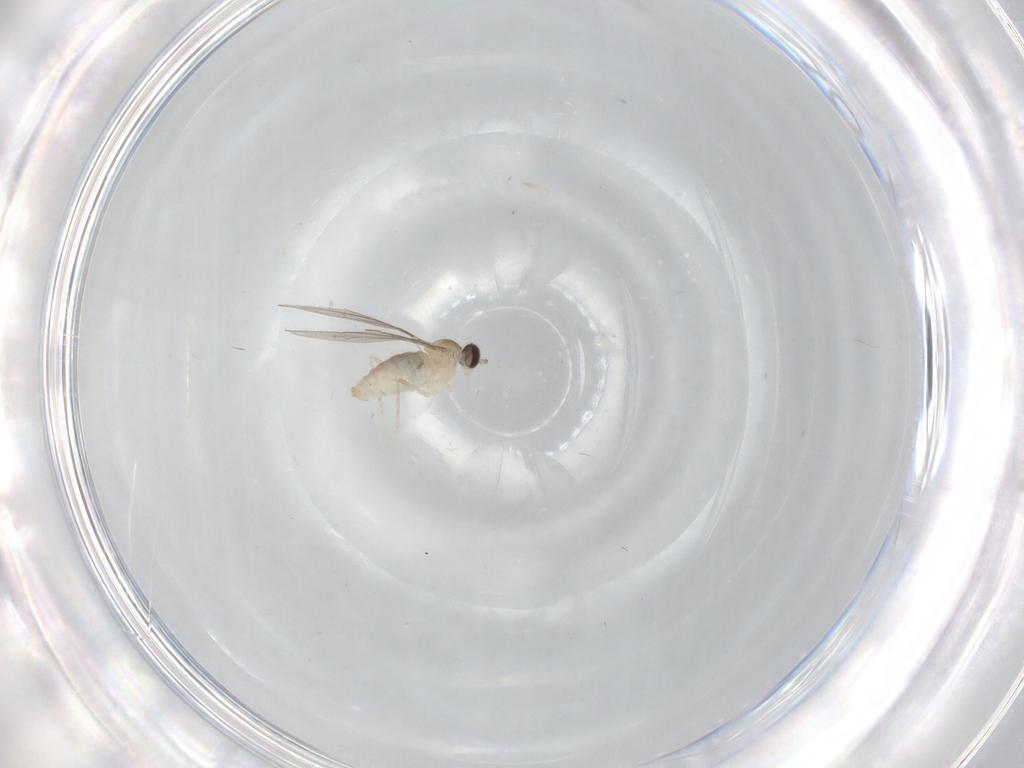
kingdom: Animalia
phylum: Arthropoda
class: Insecta
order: Diptera
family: Cecidomyiidae
